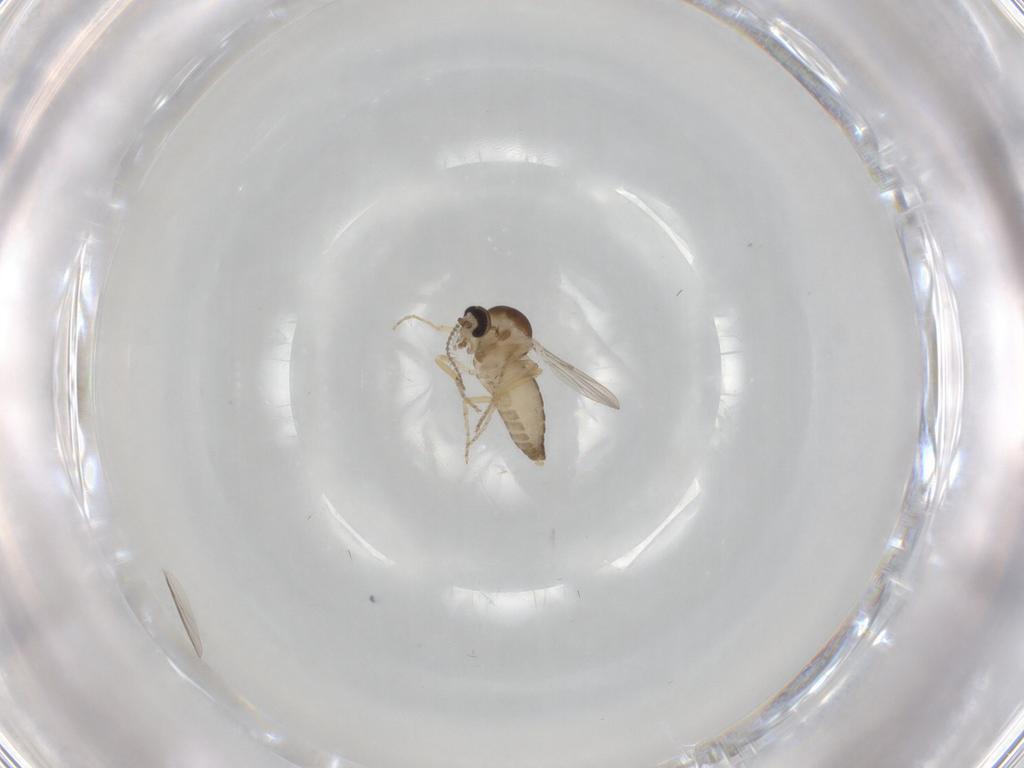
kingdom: Animalia
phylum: Arthropoda
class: Insecta
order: Diptera
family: Ceratopogonidae
